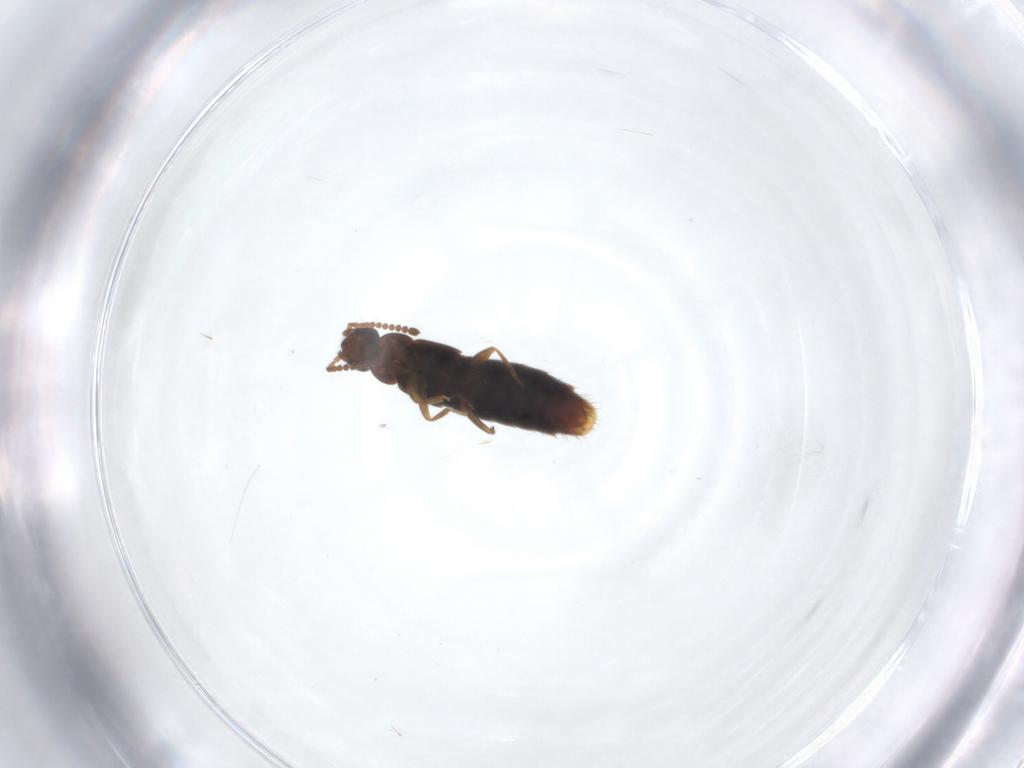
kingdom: Animalia
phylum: Arthropoda
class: Insecta
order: Coleoptera
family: Staphylinidae
